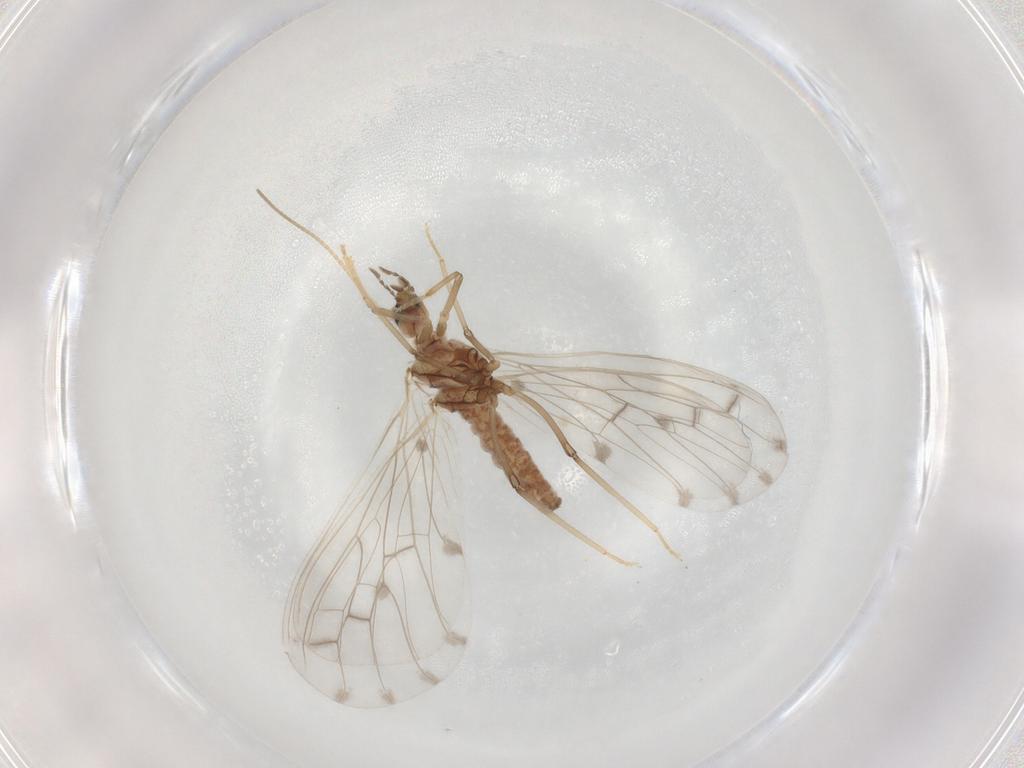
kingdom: Animalia
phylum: Arthropoda
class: Insecta
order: Neuroptera
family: Coniopterygidae
